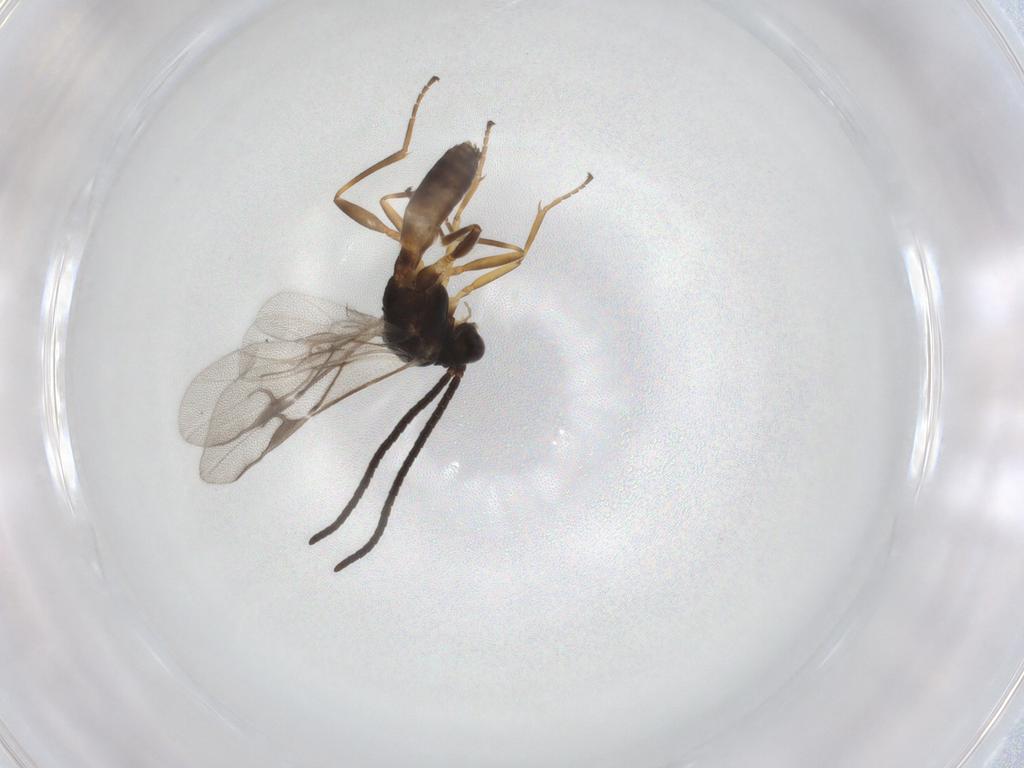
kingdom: Animalia
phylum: Arthropoda
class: Insecta
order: Hymenoptera
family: Braconidae
